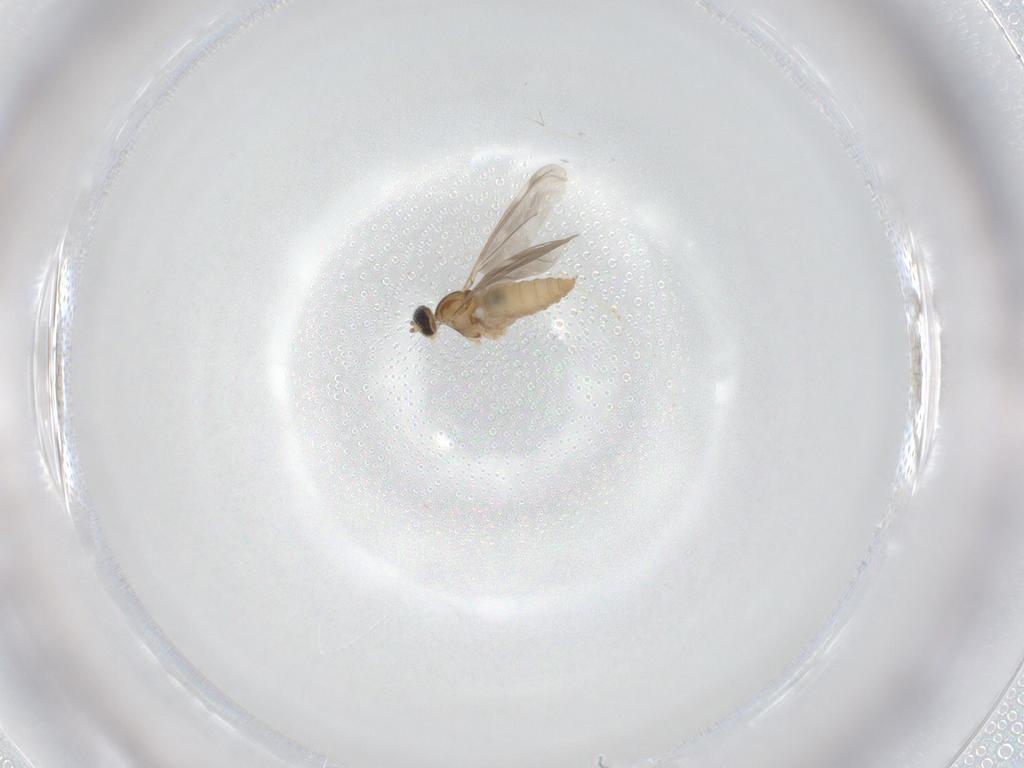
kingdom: Animalia
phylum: Arthropoda
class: Insecta
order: Diptera
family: Cecidomyiidae
